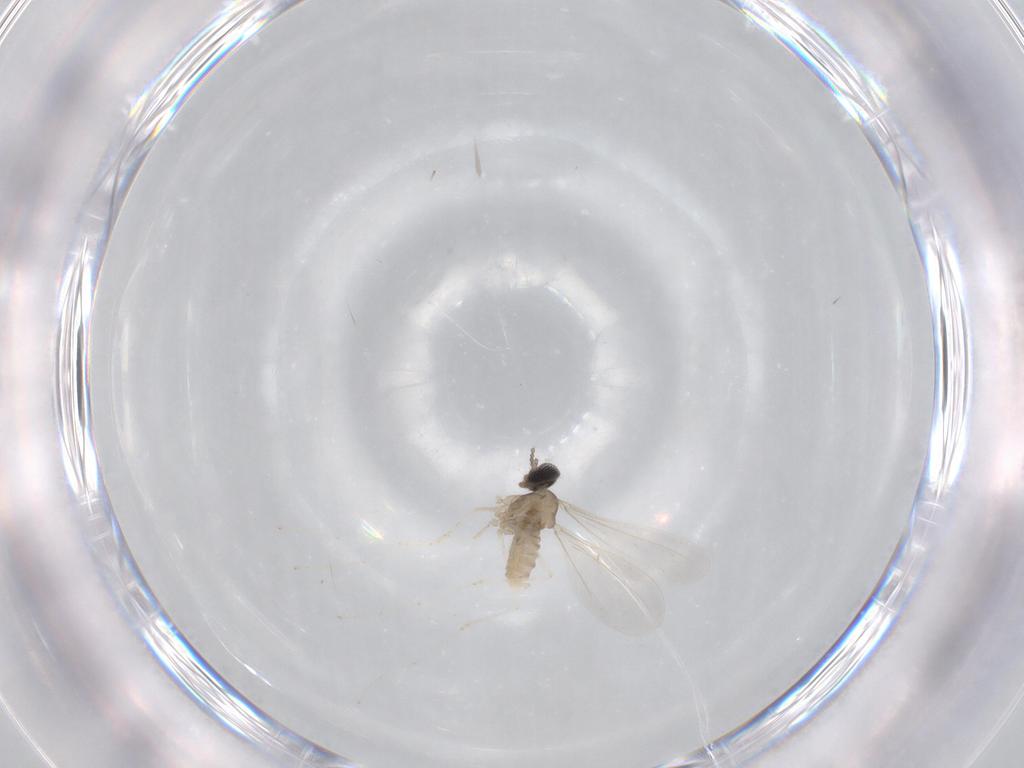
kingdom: Animalia
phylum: Arthropoda
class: Insecta
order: Diptera
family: Cecidomyiidae
